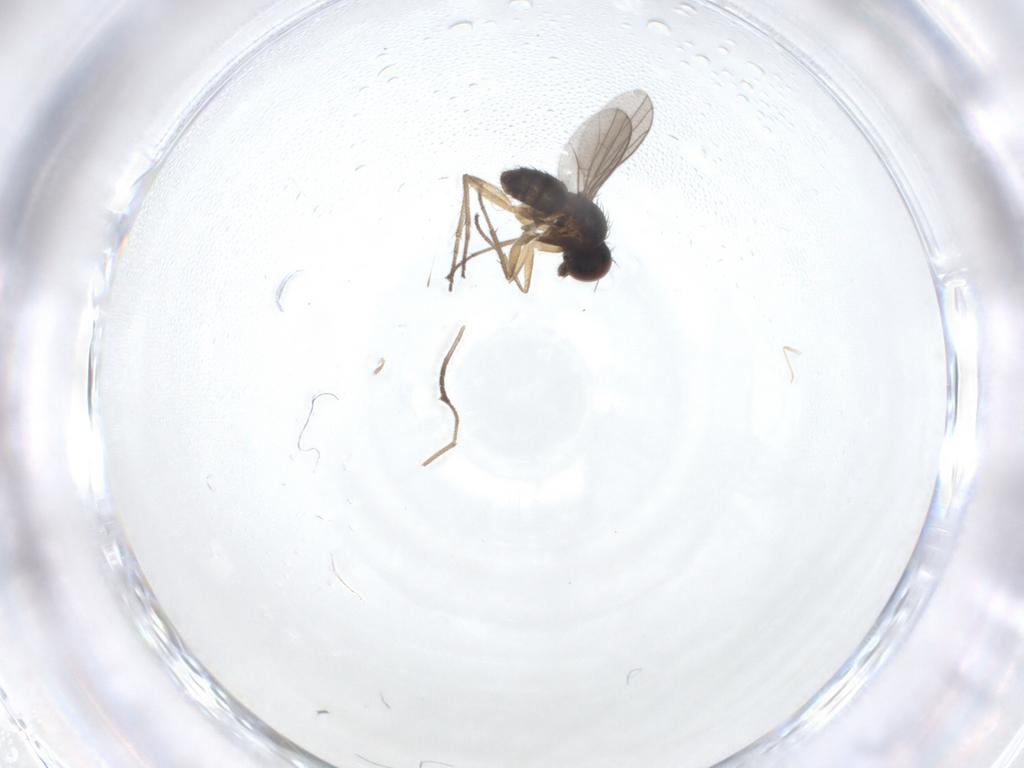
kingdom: Animalia
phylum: Arthropoda
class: Insecta
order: Diptera
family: Dolichopodidae
